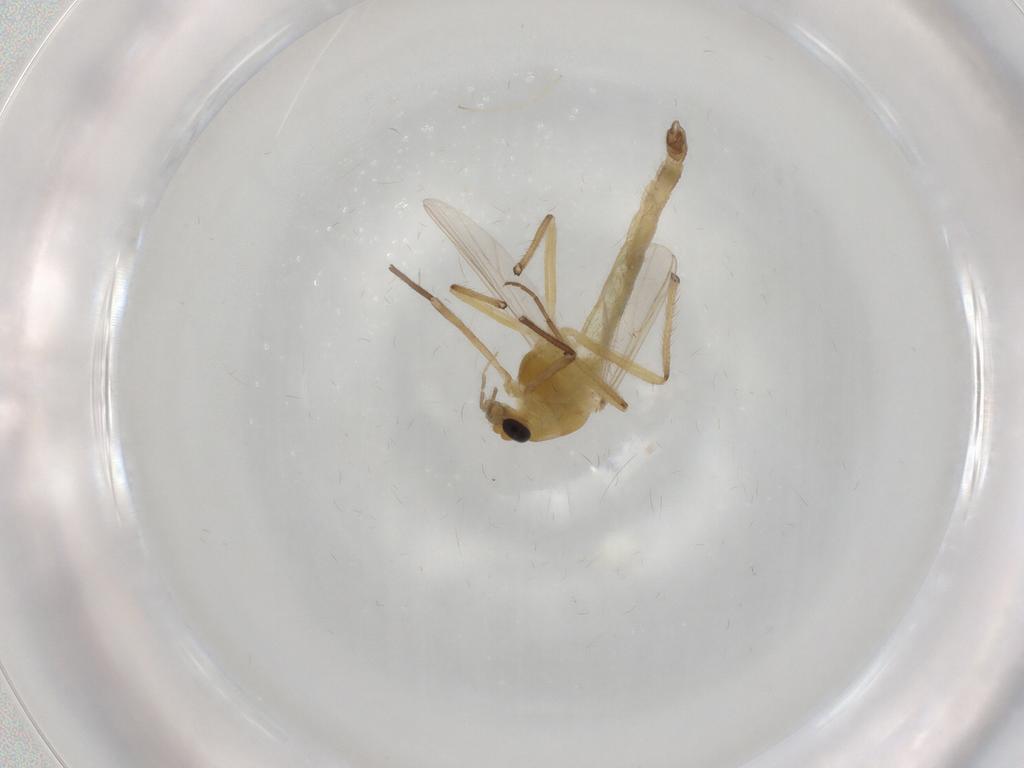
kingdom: Animalia
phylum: Arthropoda
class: Insecta
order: Diptera
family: Chironomidae
